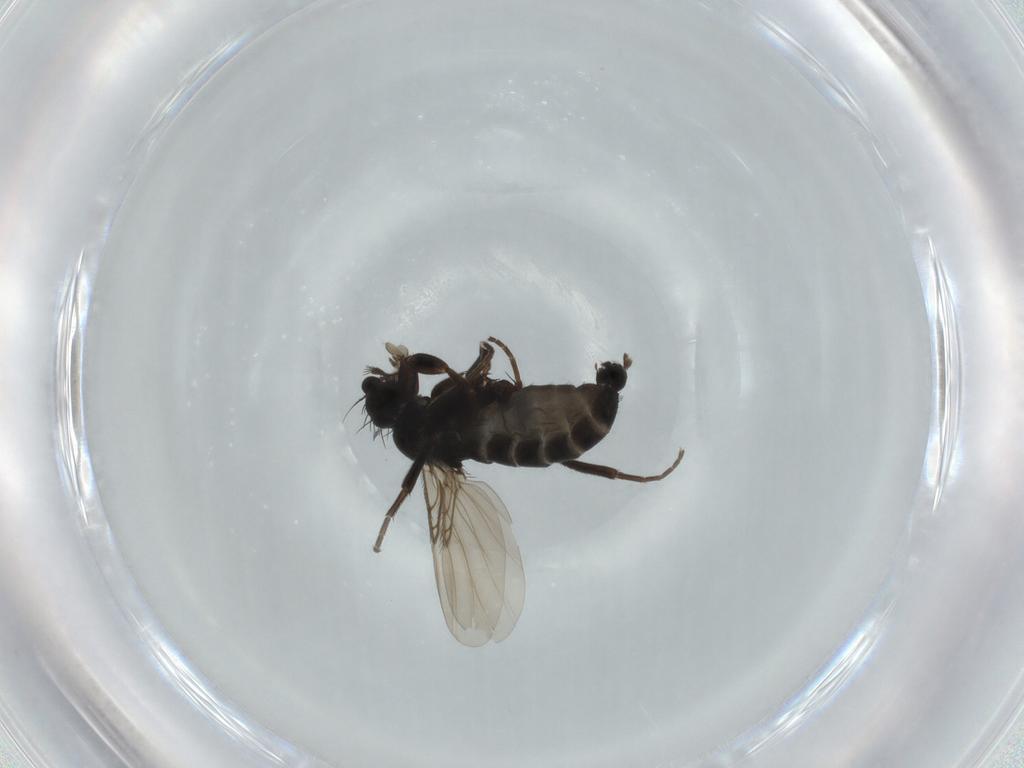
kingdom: Animalia
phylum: Arthropoda
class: Insecta
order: Diptera
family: Phoridae
